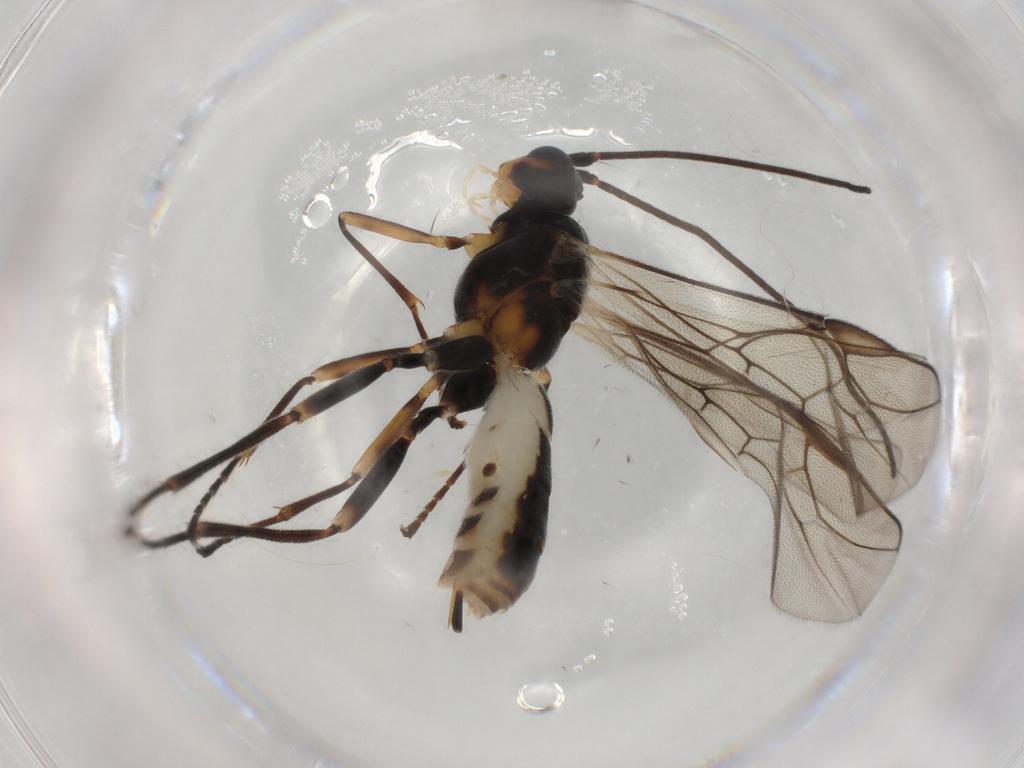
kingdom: Animalia
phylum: Arthropoda
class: Insecta
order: Hymenoptera
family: Braconidae
